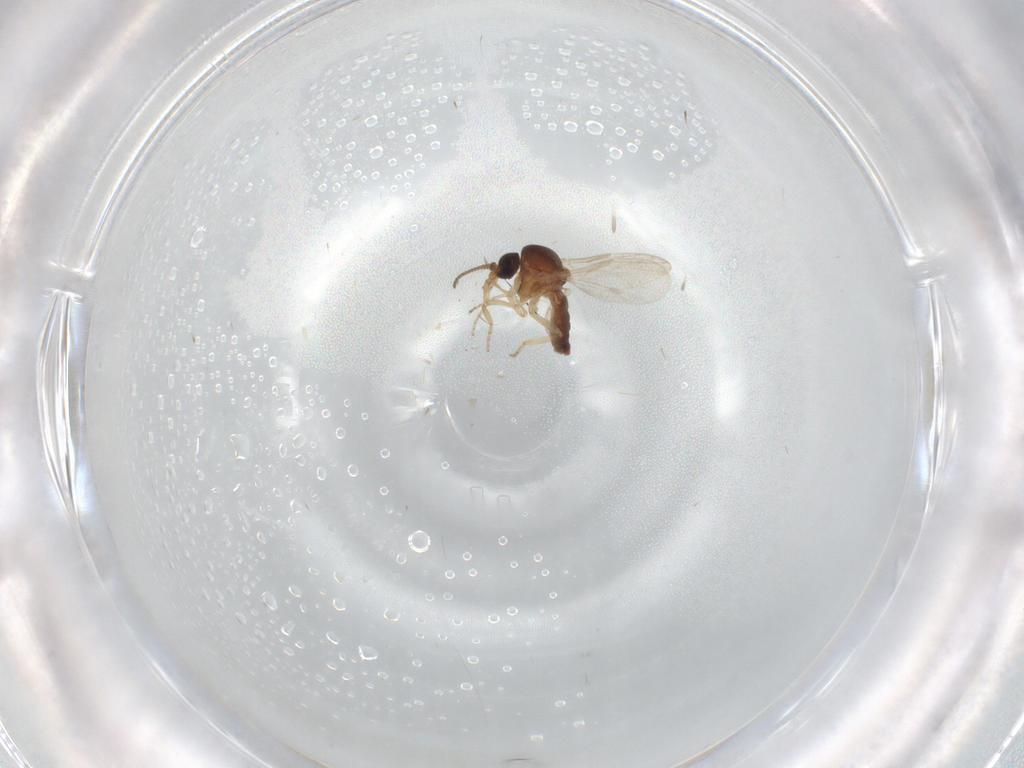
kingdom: Animalia
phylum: Arthropoda
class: Insecta
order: Diptera
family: Ceratopogonidae
